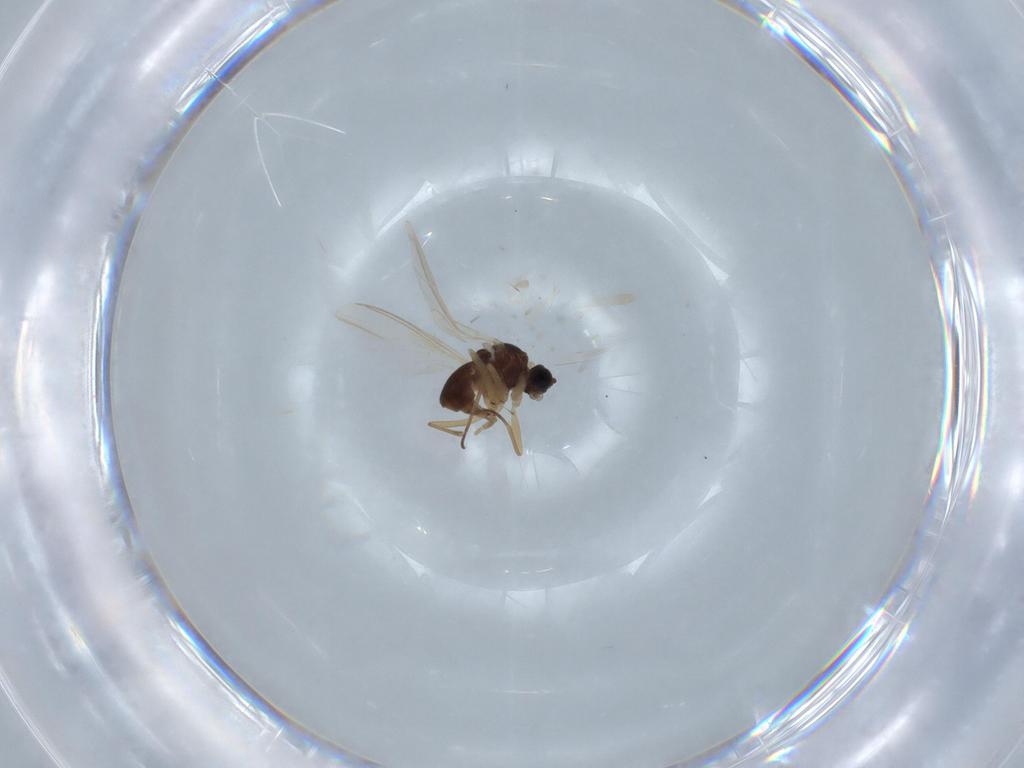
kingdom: Animalia
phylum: Arthropoda
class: Insecta
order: Diptera
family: Sciaridae
